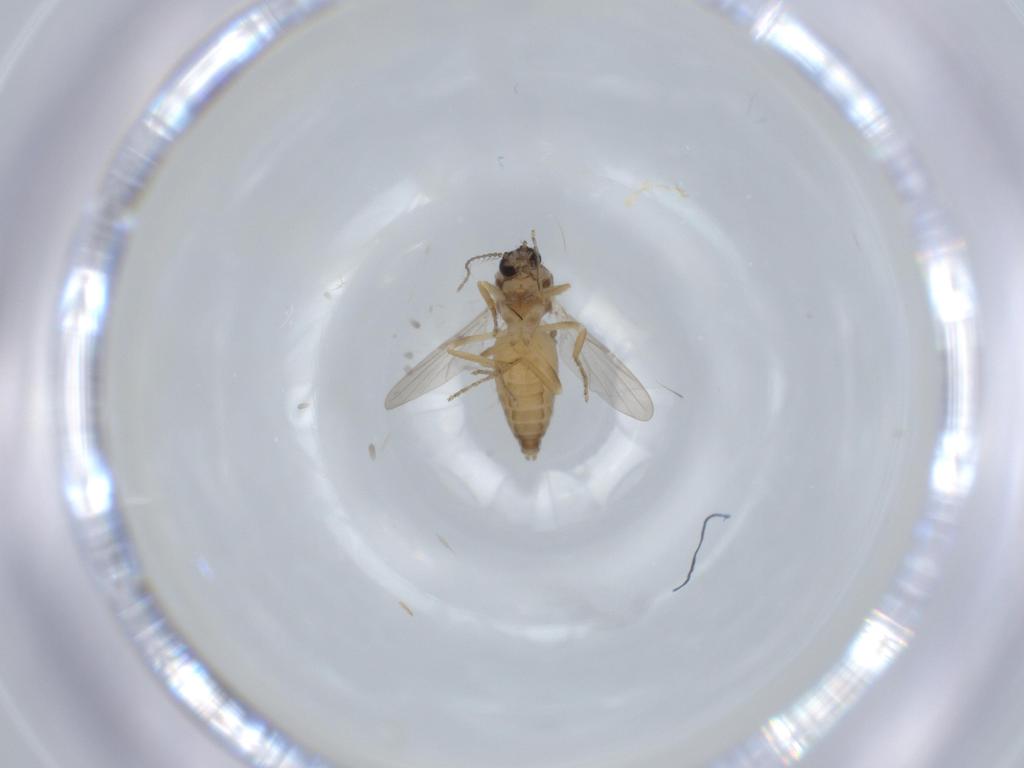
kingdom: Animalia
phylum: Arthropoda
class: Insecta
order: Diptera
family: Ceratopogonidae
